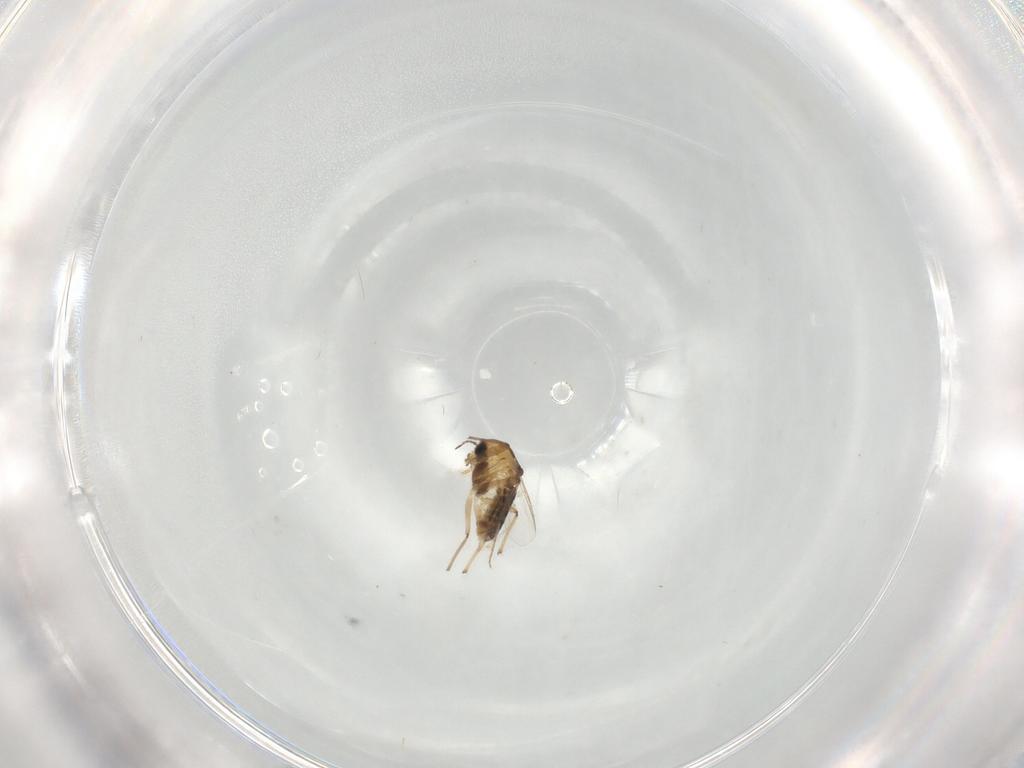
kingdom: Animalia
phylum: Arthropoda
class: Insecta
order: Diptera
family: Chironomidae
